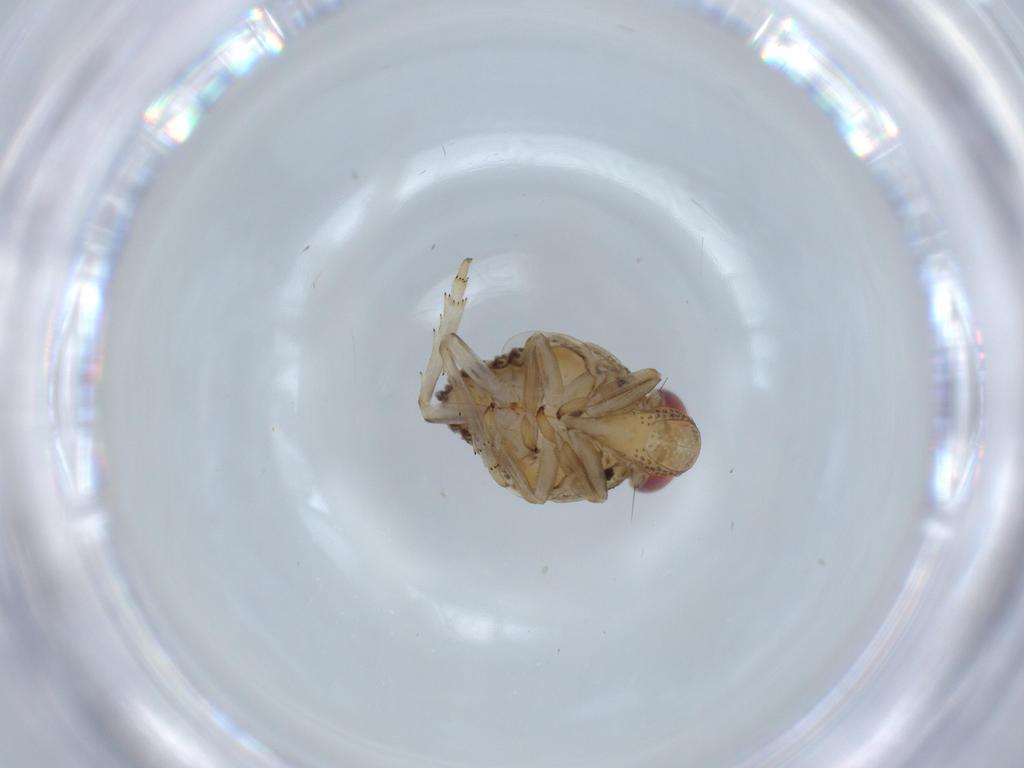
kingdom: Animalia
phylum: Arthropoda
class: Insecta
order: Hemiptera
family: Issidae
